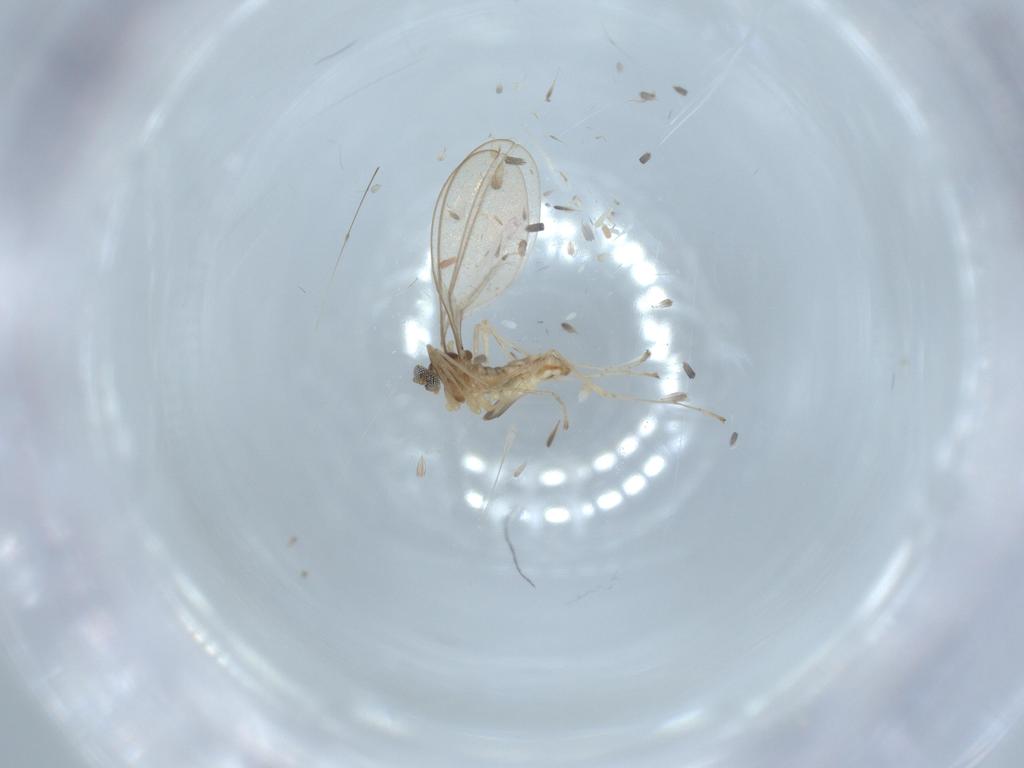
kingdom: Animalia
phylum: Arthropoda
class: Insecta
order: Diptera
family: Cecidomyiidae
